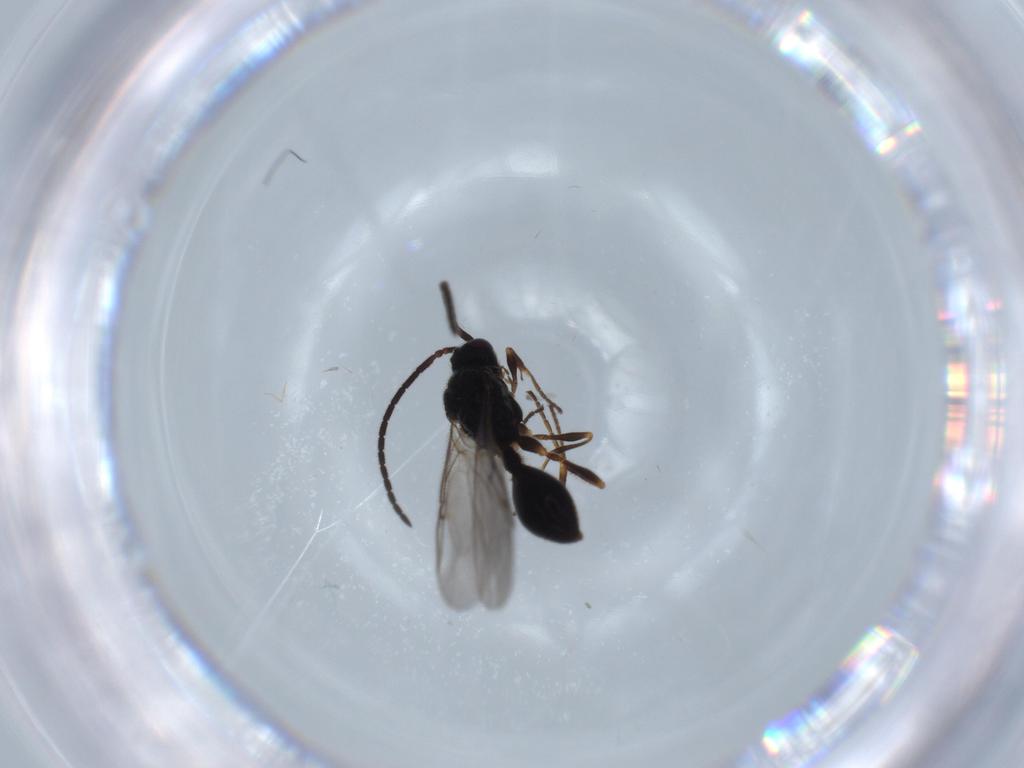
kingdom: Animalia
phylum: Arthropoda
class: Insecta
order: Hymenoptera
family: Diapriidae
